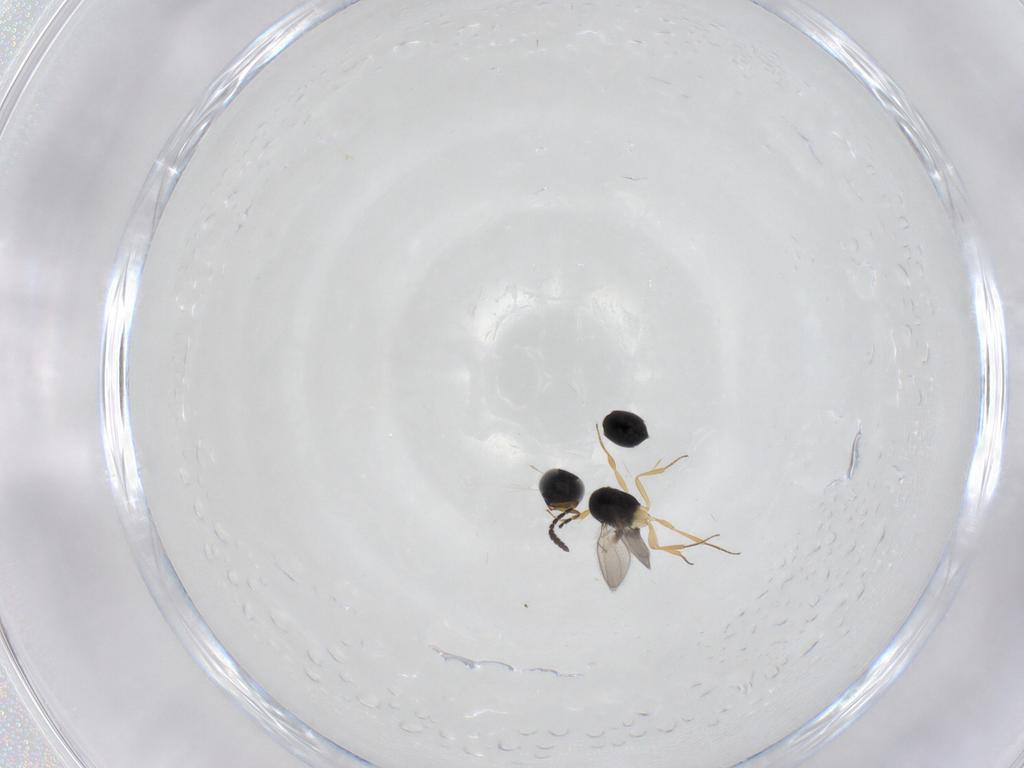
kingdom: Animalia
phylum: Arthropoda
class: Insecta
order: Hymenoptera
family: Scelionidae
